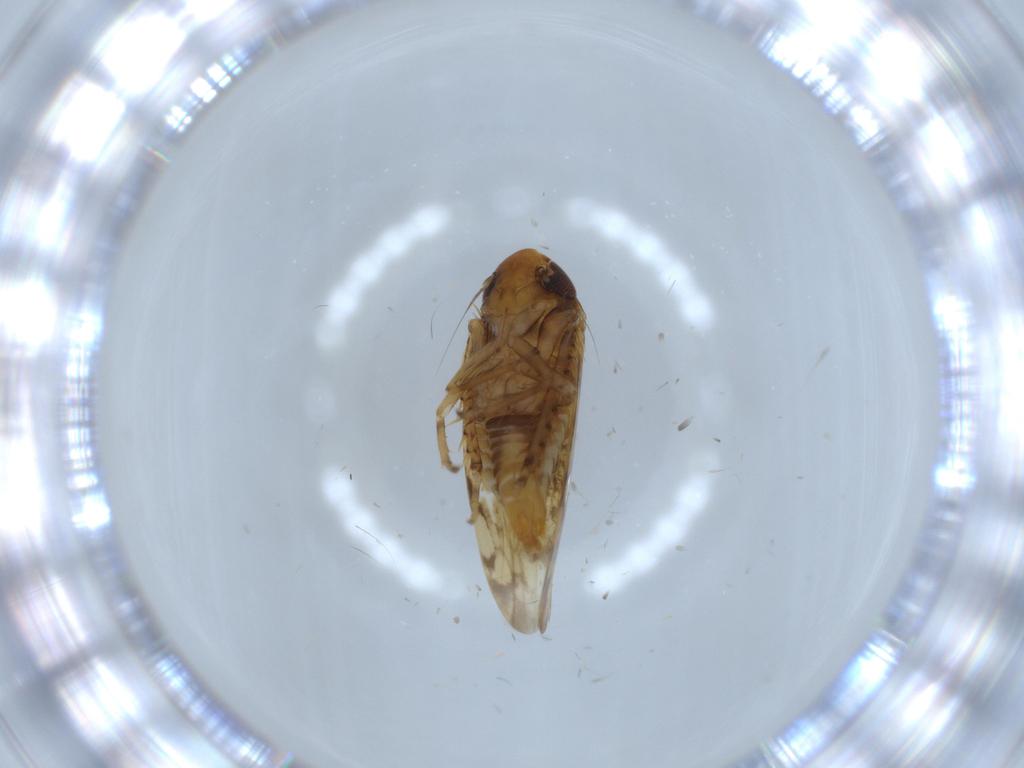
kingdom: Animalia
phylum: Arthropoda
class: Insecta
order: Hemiptera
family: Cicadellidae
